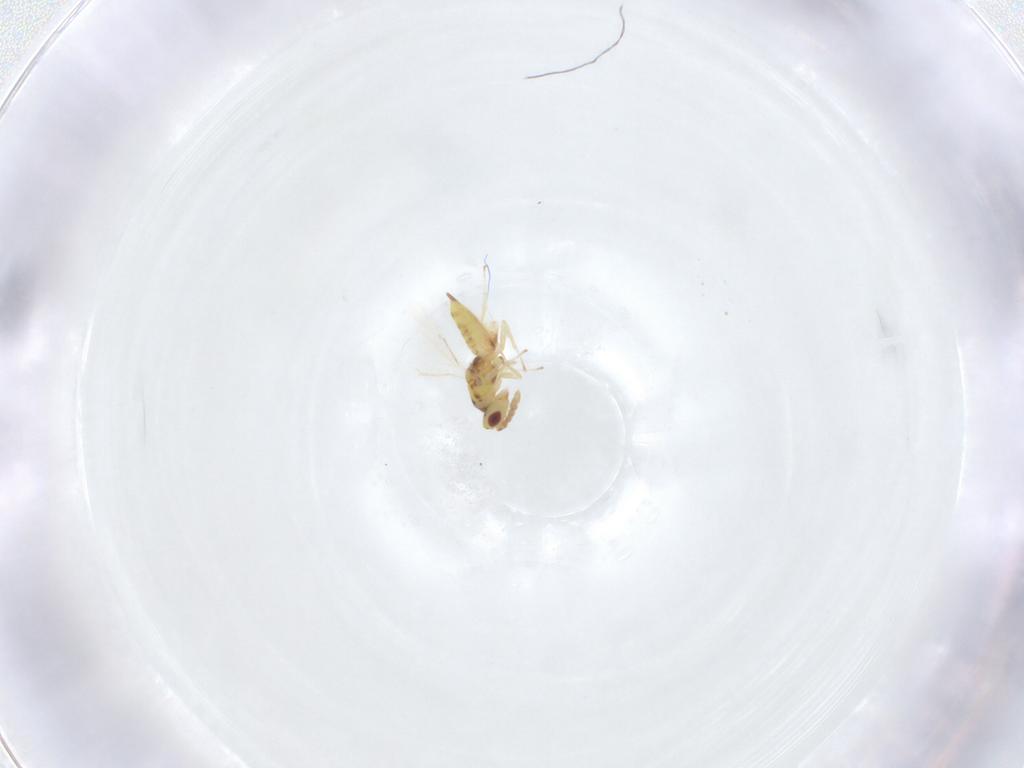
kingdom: Animalia
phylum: Arthropoda
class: Insecta
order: Hymenoptera
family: Eulophidae
